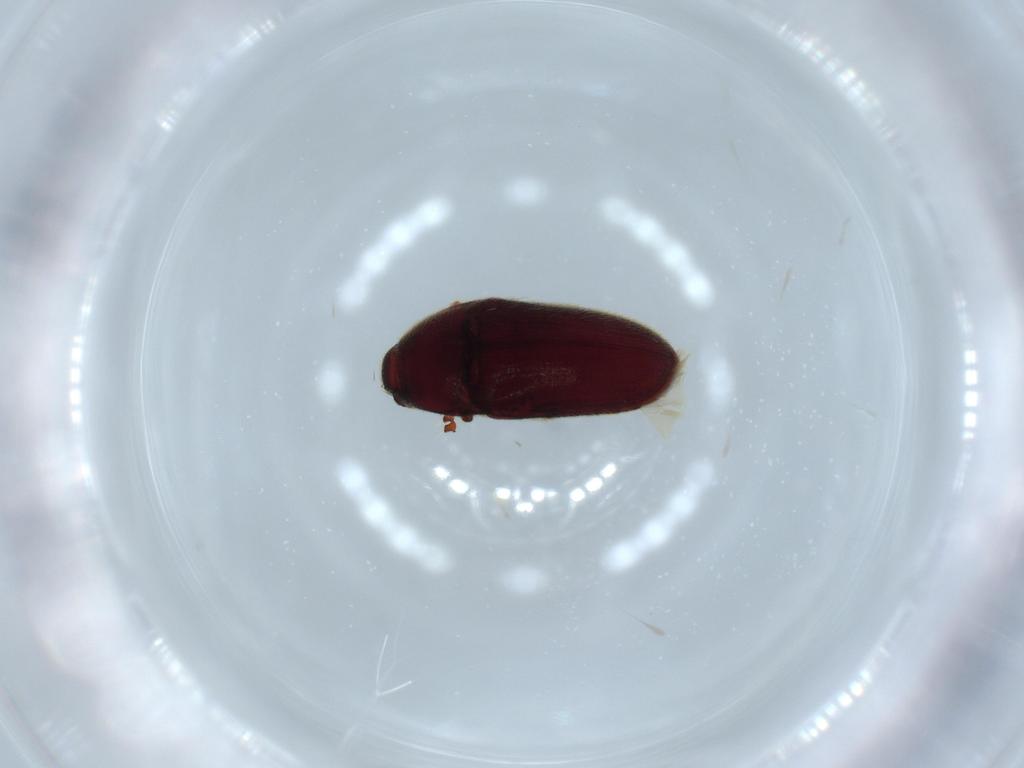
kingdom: Animalia
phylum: Arthropoda
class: Insecta
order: Coleoptera
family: Throscidae
